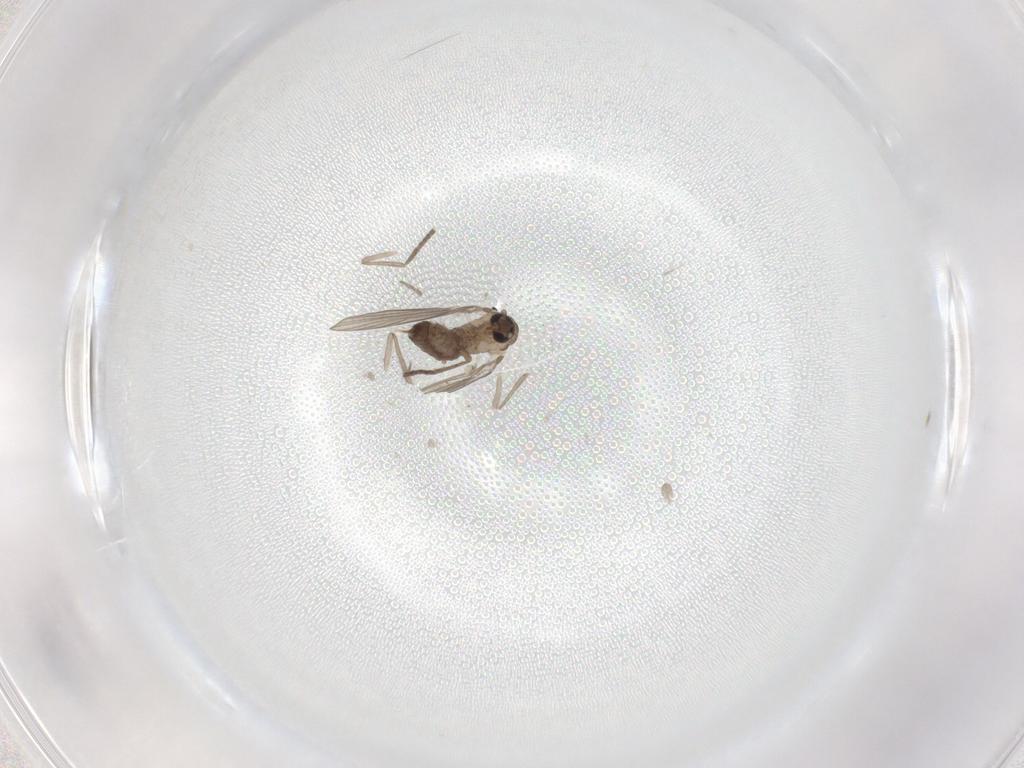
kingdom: Animalia
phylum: Arthropoda
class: Insecta
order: Diptera
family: Psychodidae
